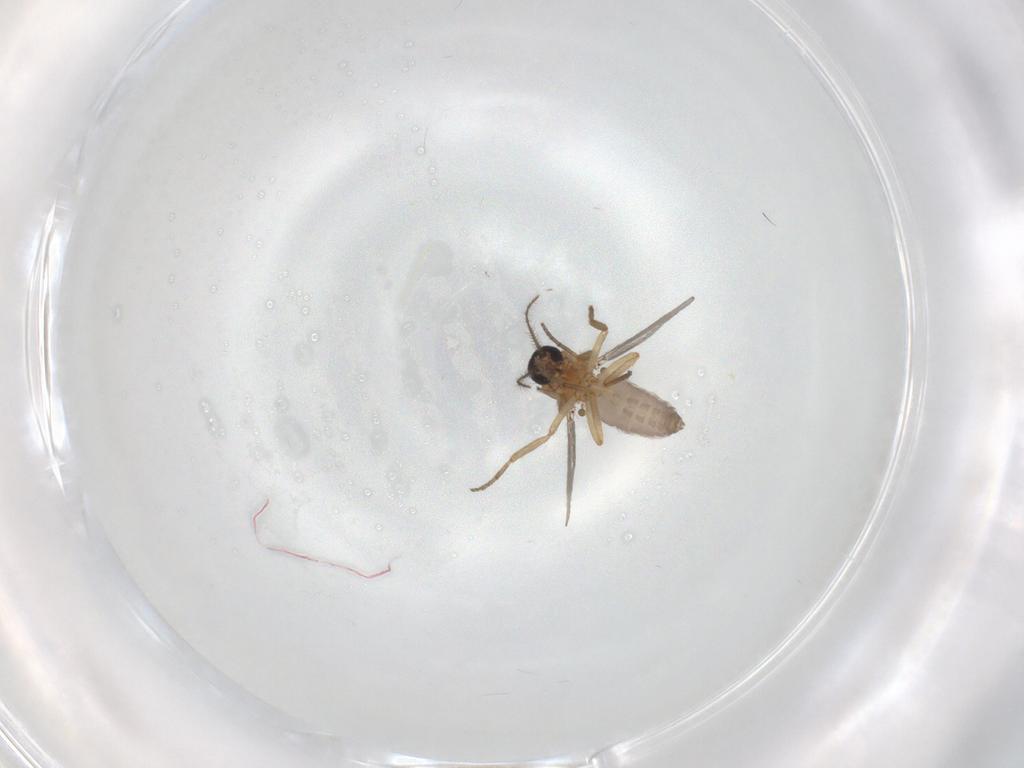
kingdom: Animalia
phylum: Arthropoda
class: Insecta
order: Diptera
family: Ceratopogonidae
